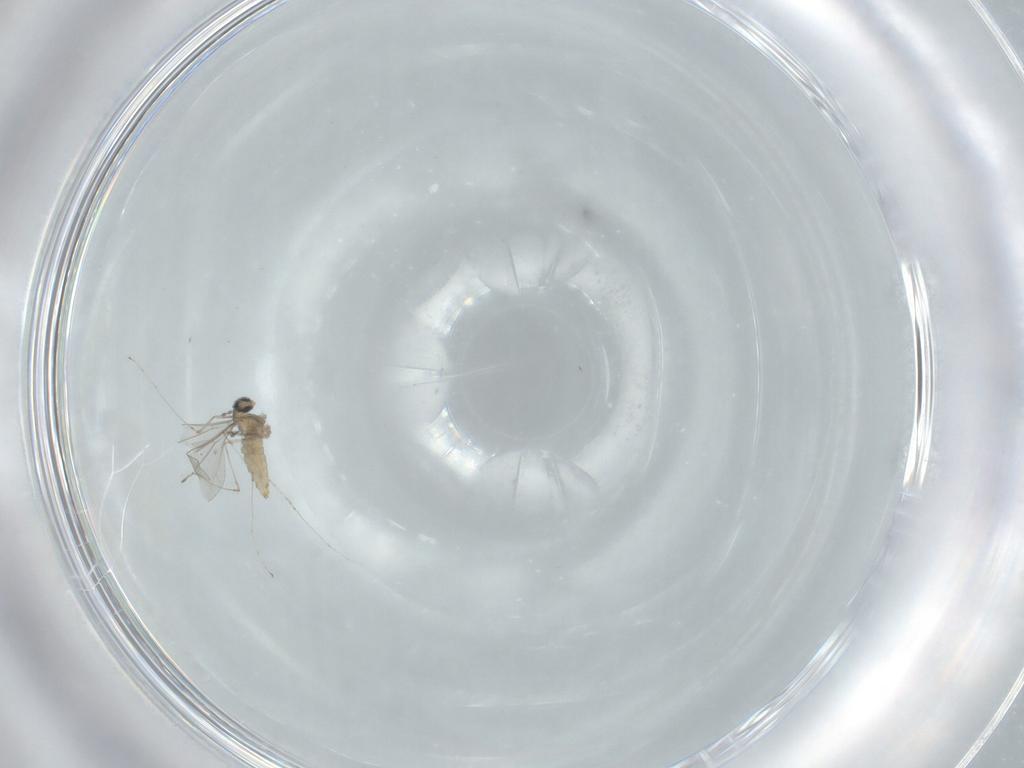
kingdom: Animalia
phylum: Arthropoda
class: Insecta
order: Diptera
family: Cecidomyiidae
